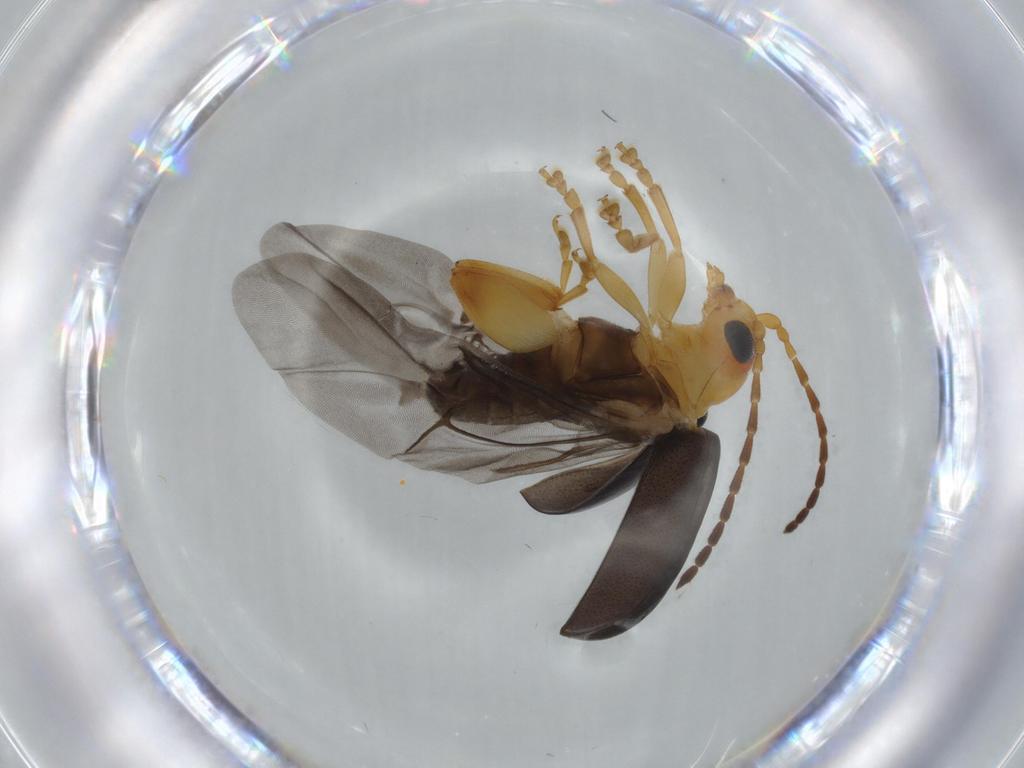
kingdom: Animalia
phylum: Arthropoda
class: Insecta
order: Coleoptera
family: Chrysomelidae
